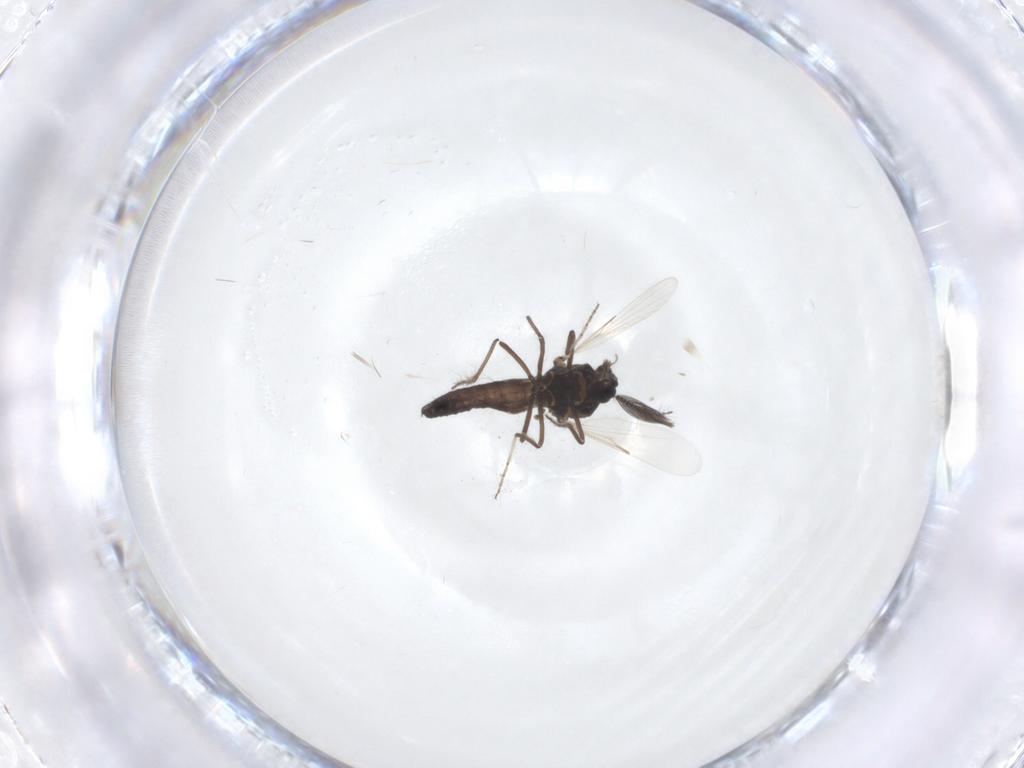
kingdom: Animalia
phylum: Arthropoda
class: Insecta
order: Diptera
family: Ceratopogonidae
